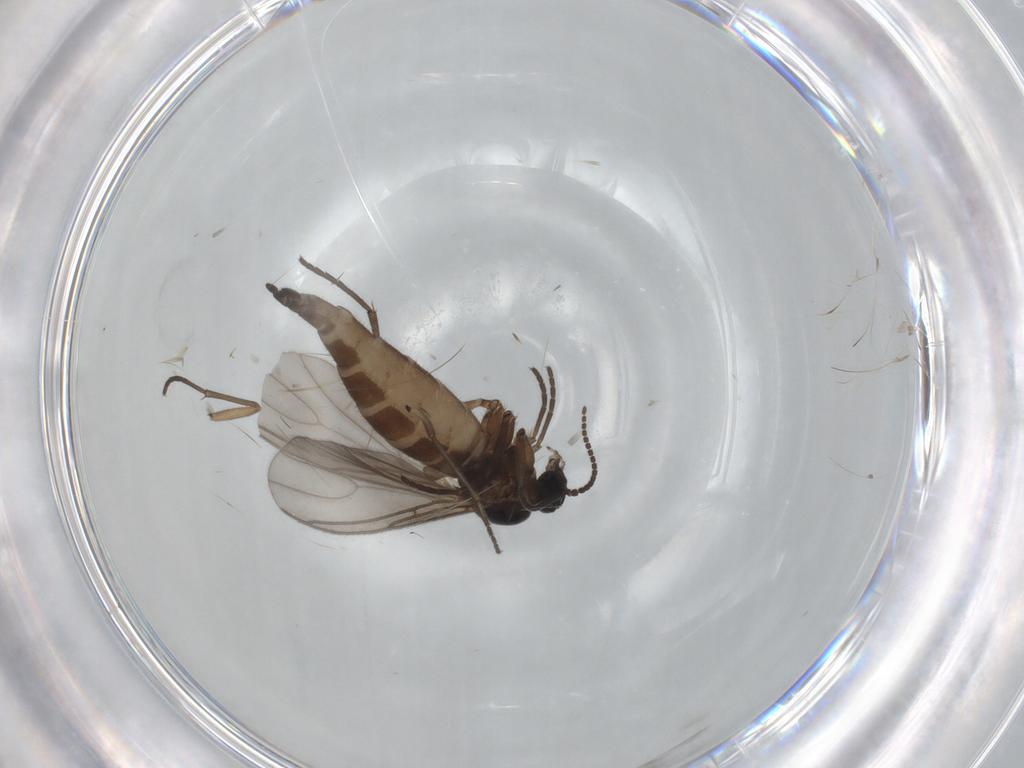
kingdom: Animalia
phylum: Arthropoda
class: Insecta
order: Diptera
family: Sciaridae
